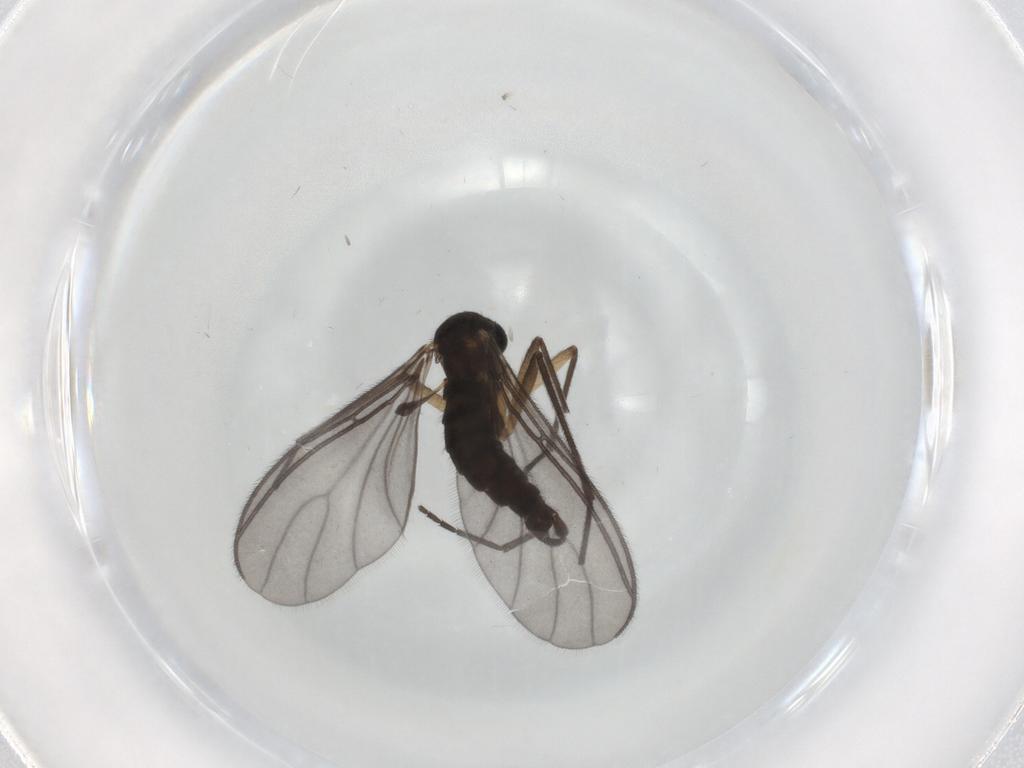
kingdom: Animalia
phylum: Arthropoda
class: Insecta
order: Diptera
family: Sciaridae
